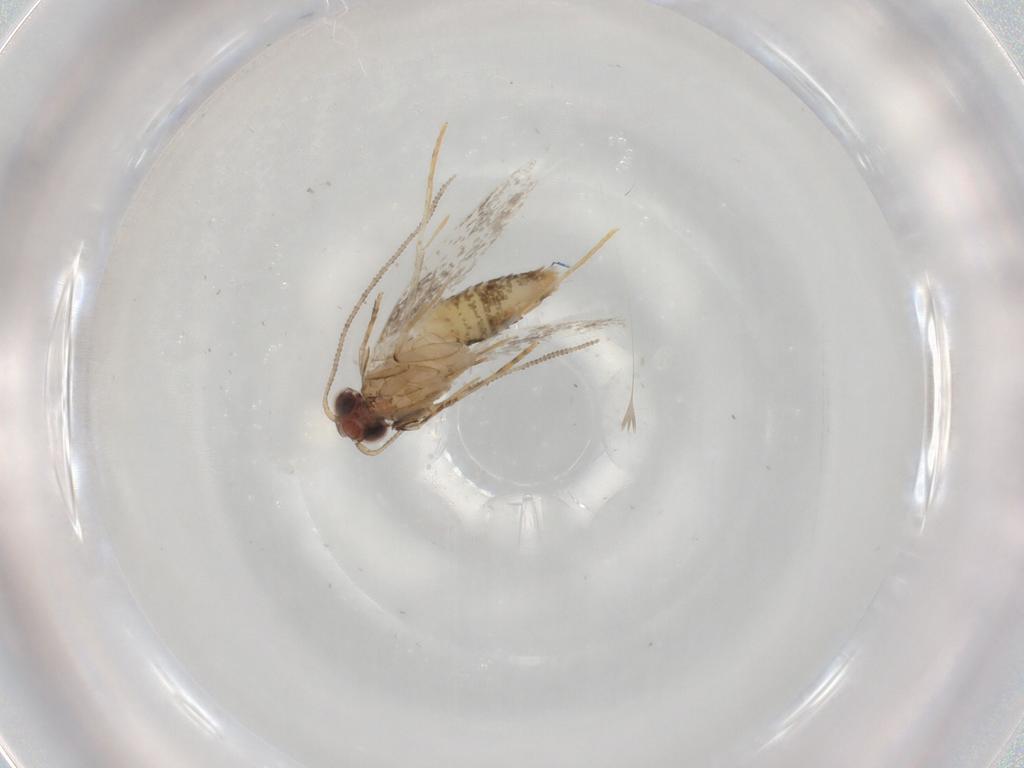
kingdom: Animalia
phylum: Arthropoda
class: Insecta
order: Lepidoptera
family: Tineidae
